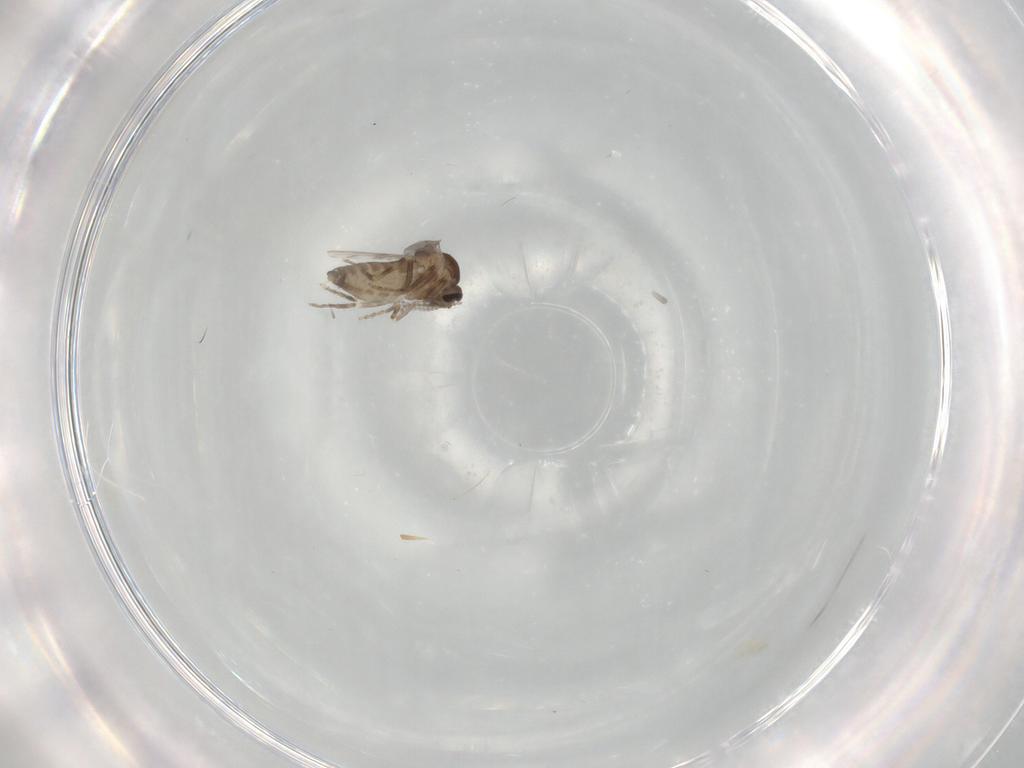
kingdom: Animalia
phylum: Arthropoda
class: Insecta
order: Diptera
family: Ceratopogonidae
